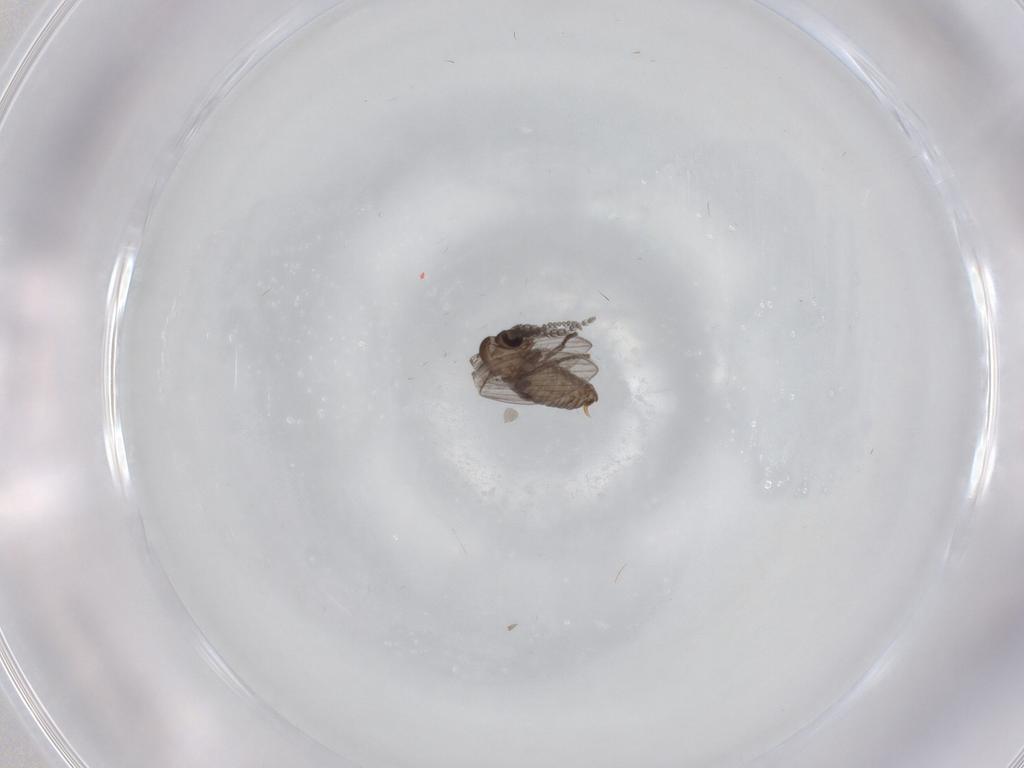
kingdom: Animalia
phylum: Arthropoda
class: Insecta
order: Diptera
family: Psychodidae
